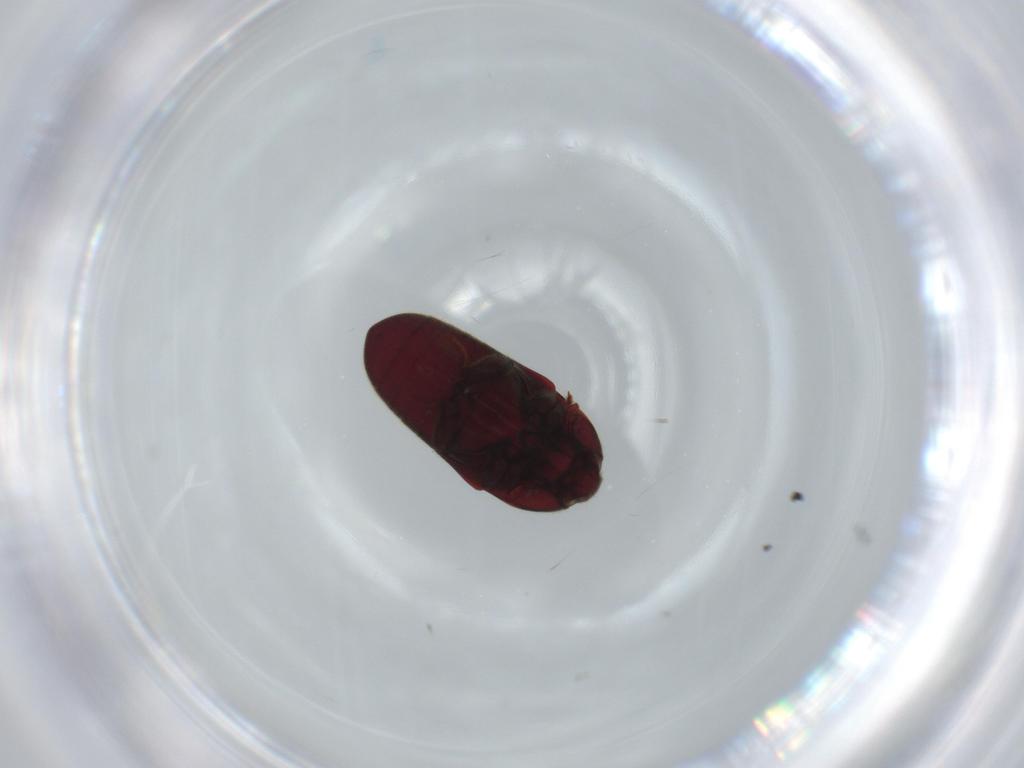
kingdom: Animalia
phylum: Arthropoda
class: Insecta
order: Coleoptera
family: Throscidae
